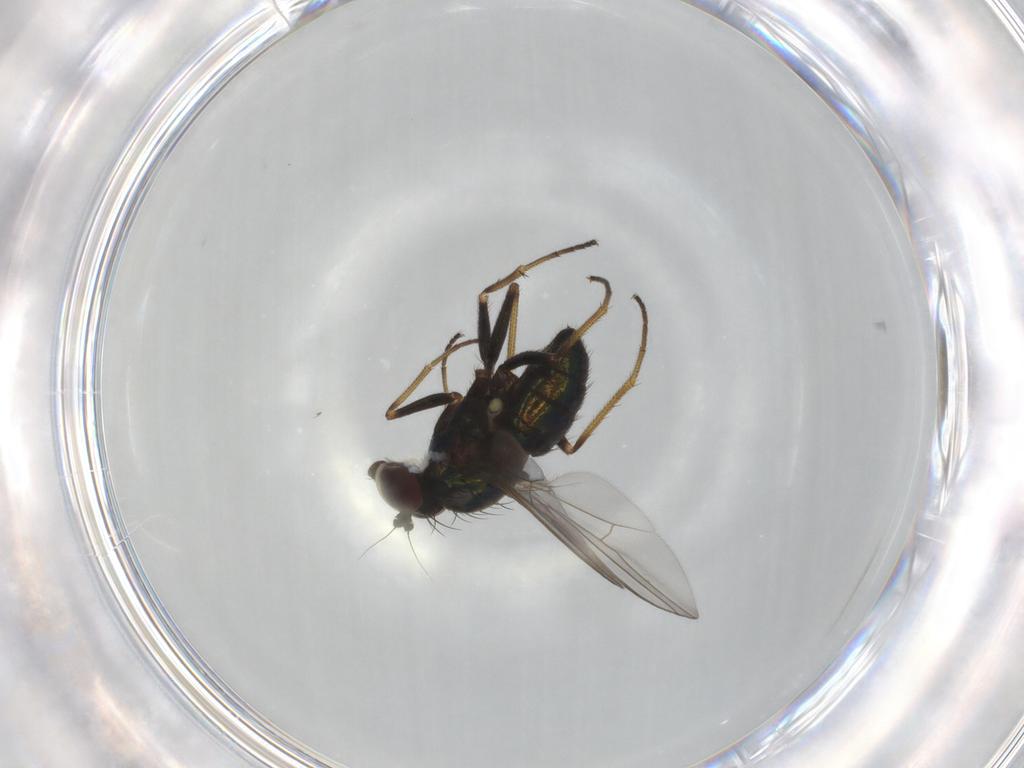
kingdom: Animalia
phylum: Arthropoda
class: Insecta
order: Diptera
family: Dolichopodidae
